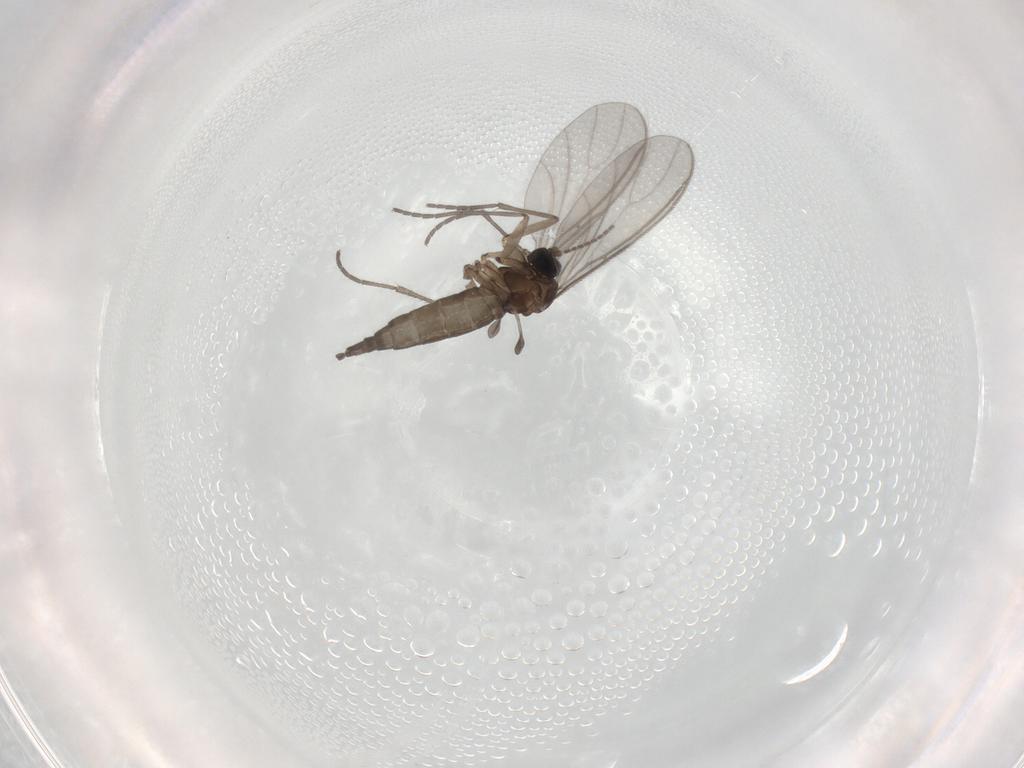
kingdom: Animalia
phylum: Arthropoda
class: Insecta
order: Diptera
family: Sciaridae
